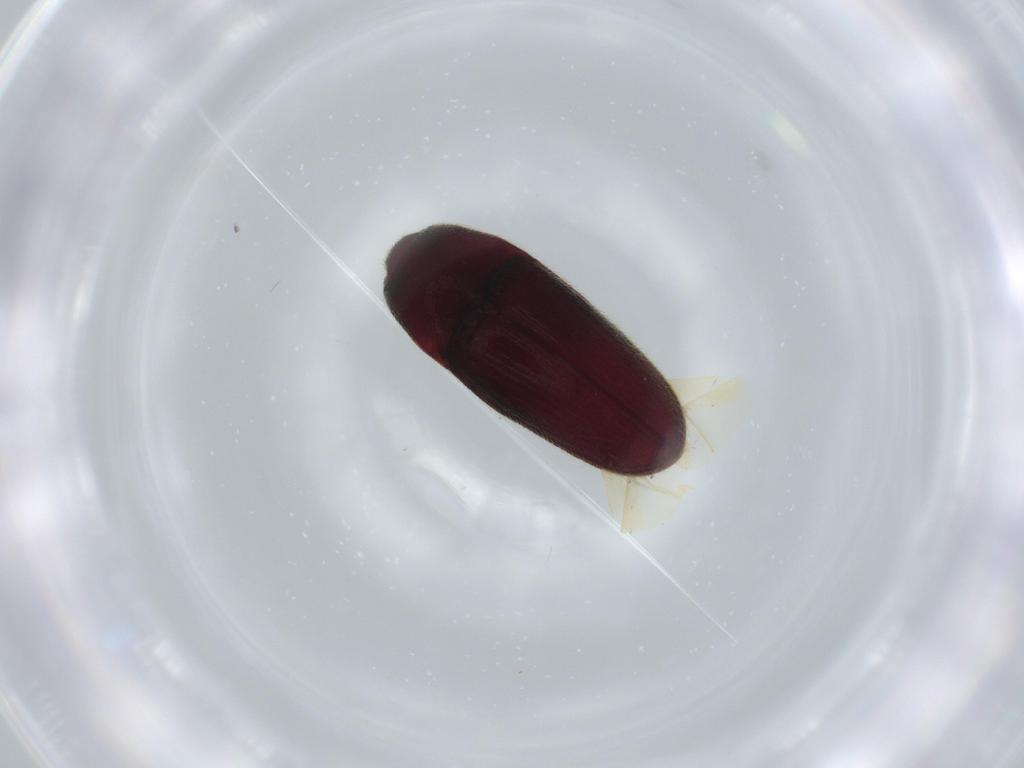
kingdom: Animalia
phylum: Arthropoda
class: Insecta
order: Coleoptera
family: Throscidae
